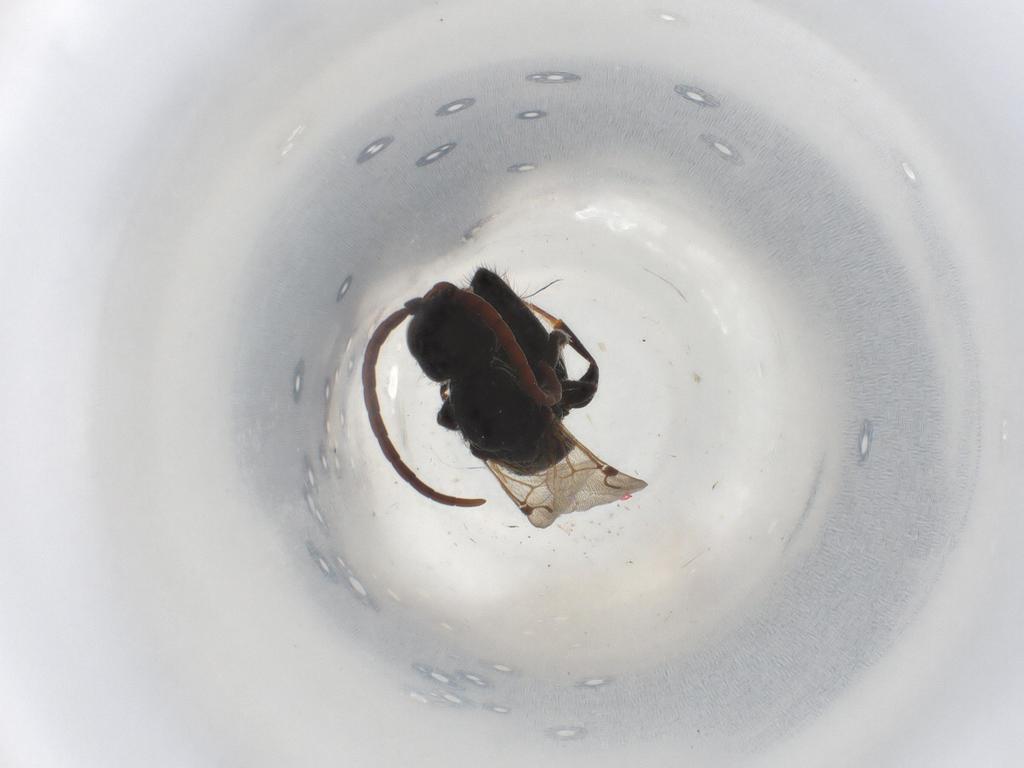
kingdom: Animalia
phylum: Arthropoda
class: Insecta
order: Hymenoptera
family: Bethylidae
